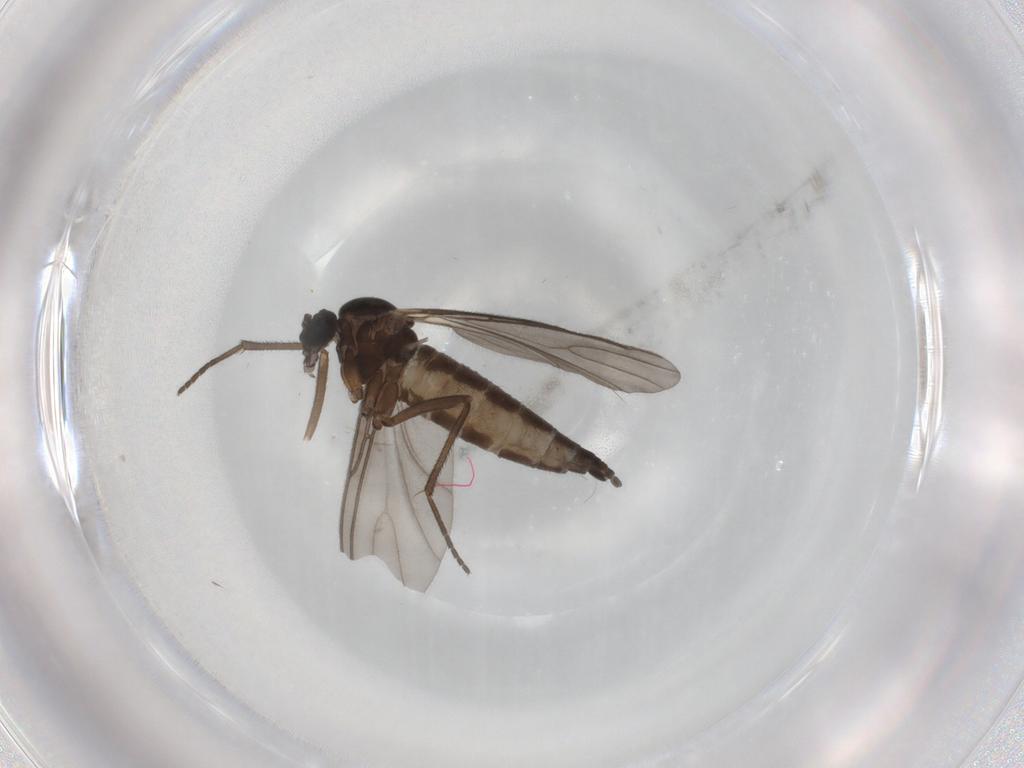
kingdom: Animalia
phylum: Arthropoda
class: Insecta
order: Diptera
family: Sciaridae
